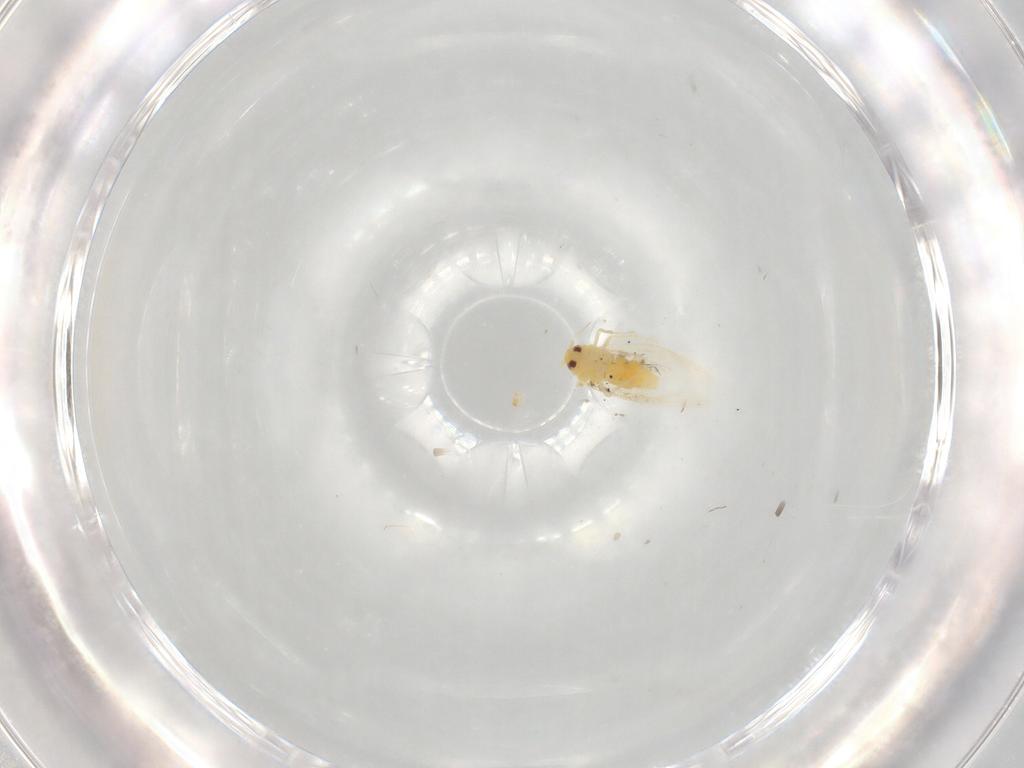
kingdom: Animalia
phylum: Arthropoda
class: Insecta
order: Hemiptera
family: Aleyrodidae
